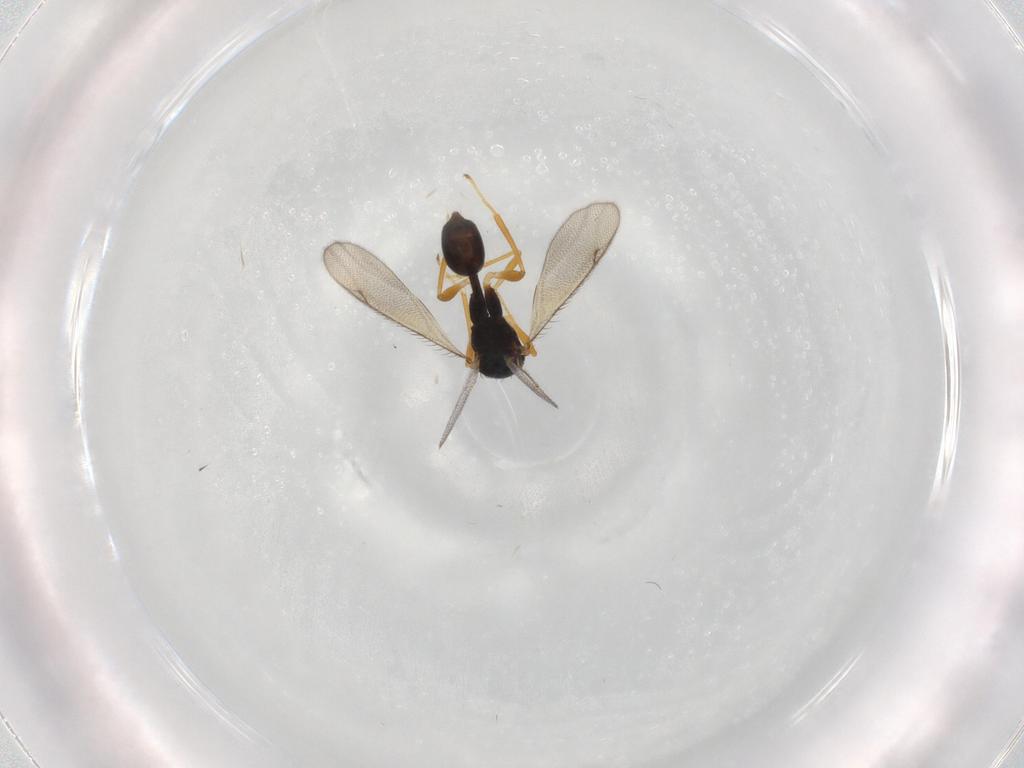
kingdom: Animalia
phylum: Arthropoda
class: Insecta
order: Hymenoptera
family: Diparidae
